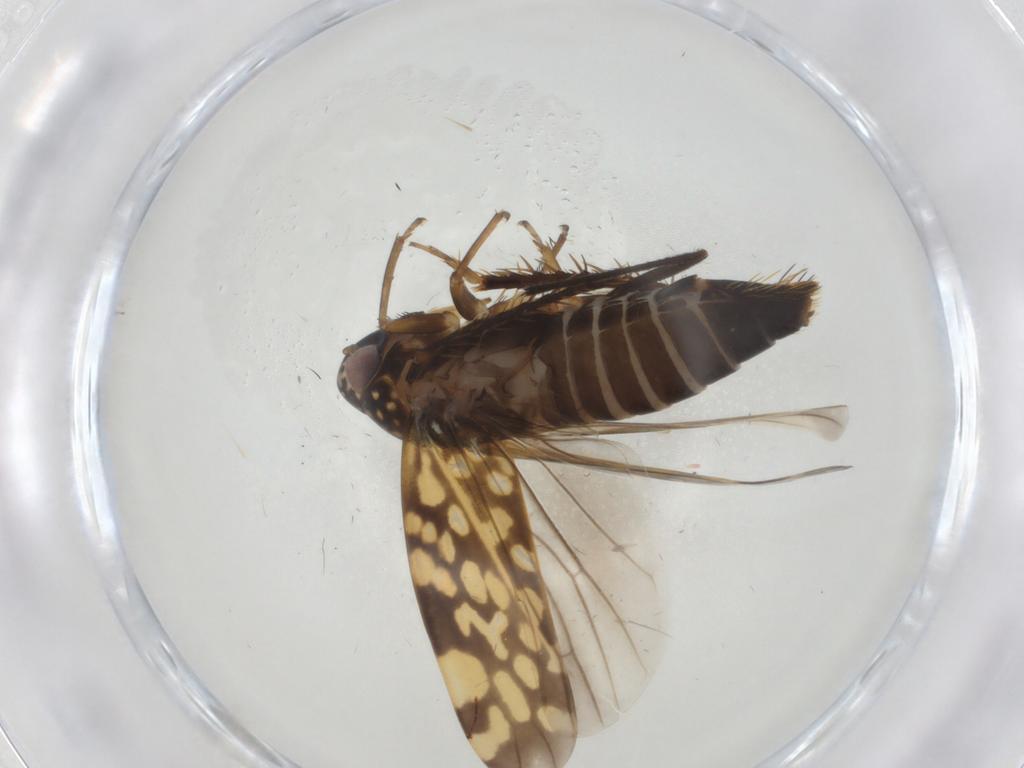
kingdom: Animalia
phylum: Arthropoda
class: Insecta
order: Hemiptera
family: Cicadellidae
